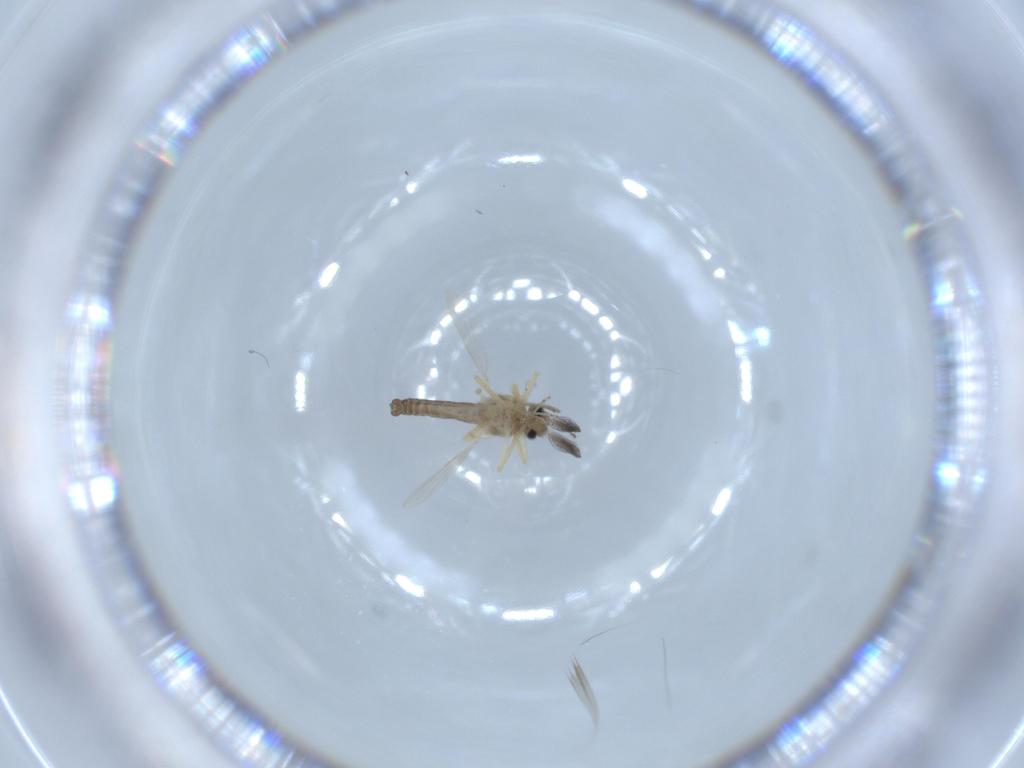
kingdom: Animalia
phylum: Arthropoda
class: Insecta
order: Diptera
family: Ceratopogonidae
